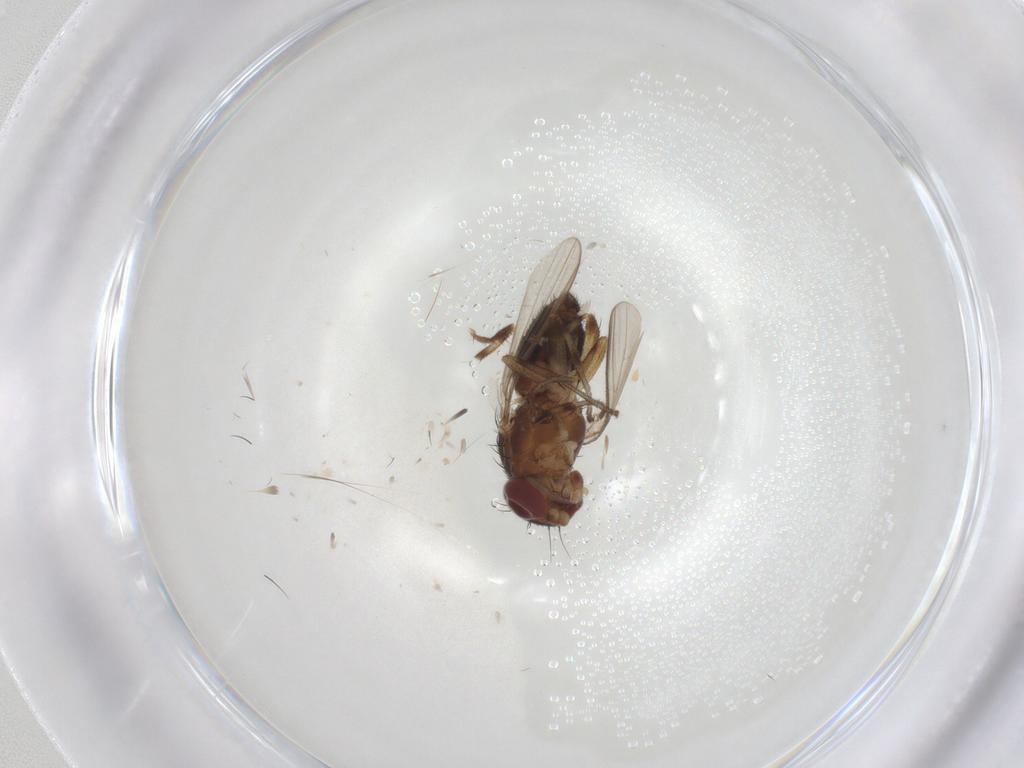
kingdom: Animalia
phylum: Arthropoda
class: Insecta
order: Diptera
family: Heleomyzidae
